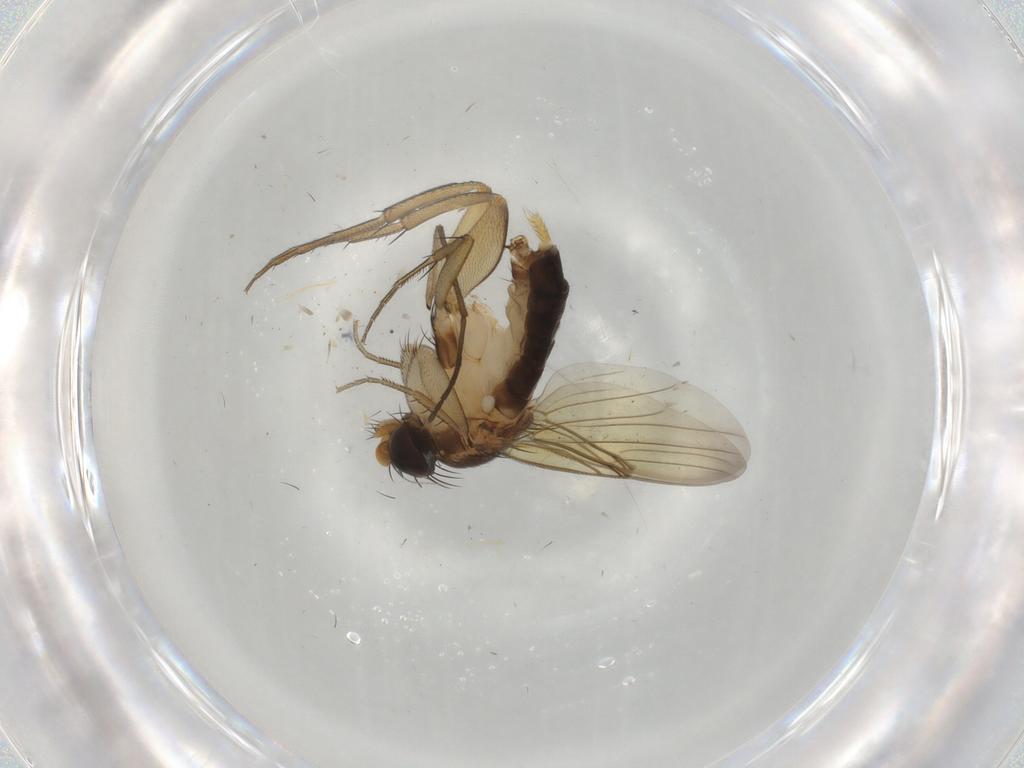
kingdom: Animalia
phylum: Arthropoda
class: Insecta
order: Diptera
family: Phoridae
